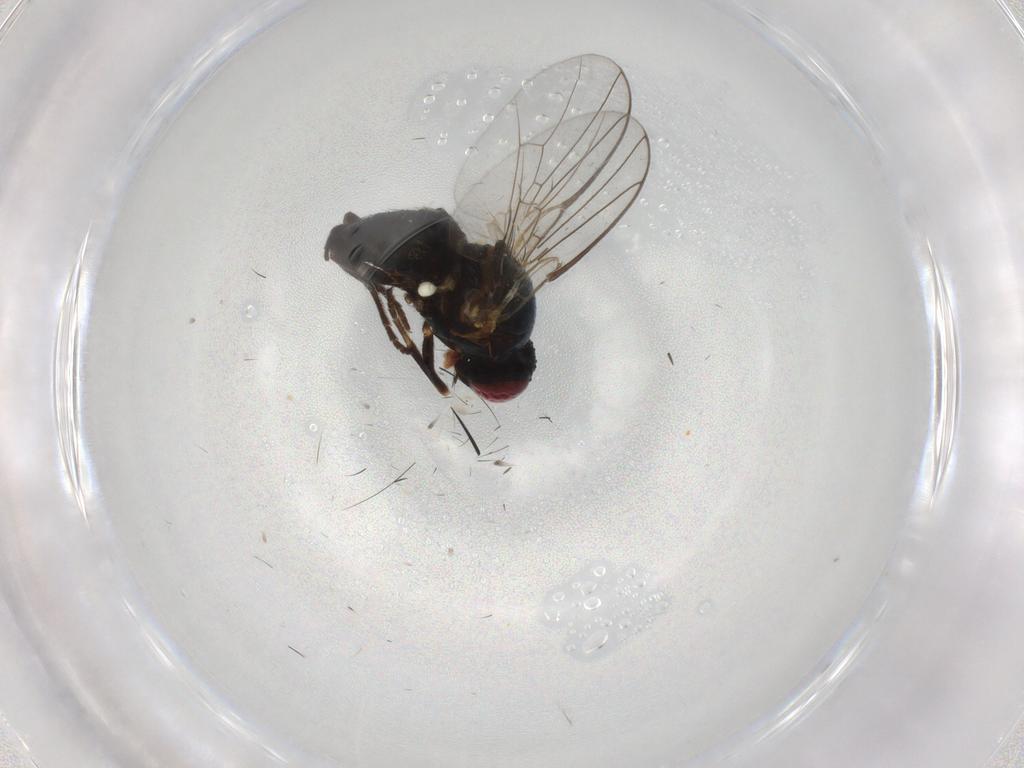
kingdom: Animalia
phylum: Arthropoda
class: Insecta
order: Diptera
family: Agromyzidae
